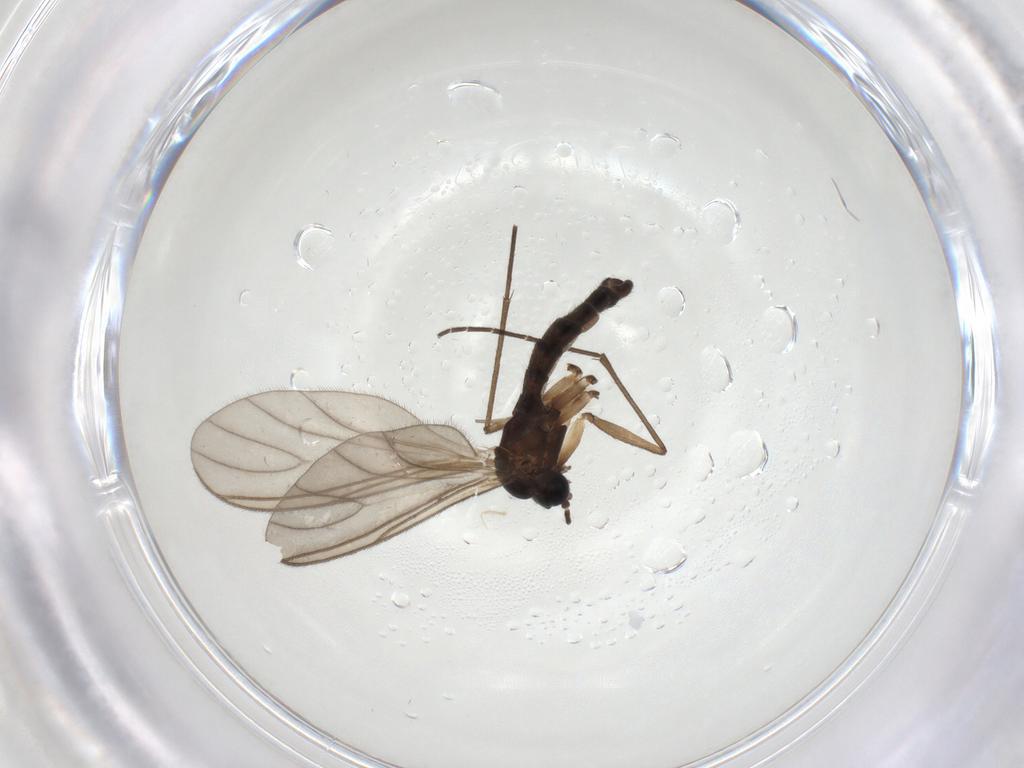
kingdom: Animalia
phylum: Arthropoda
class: Insecta
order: Diptera
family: Sciaridae
